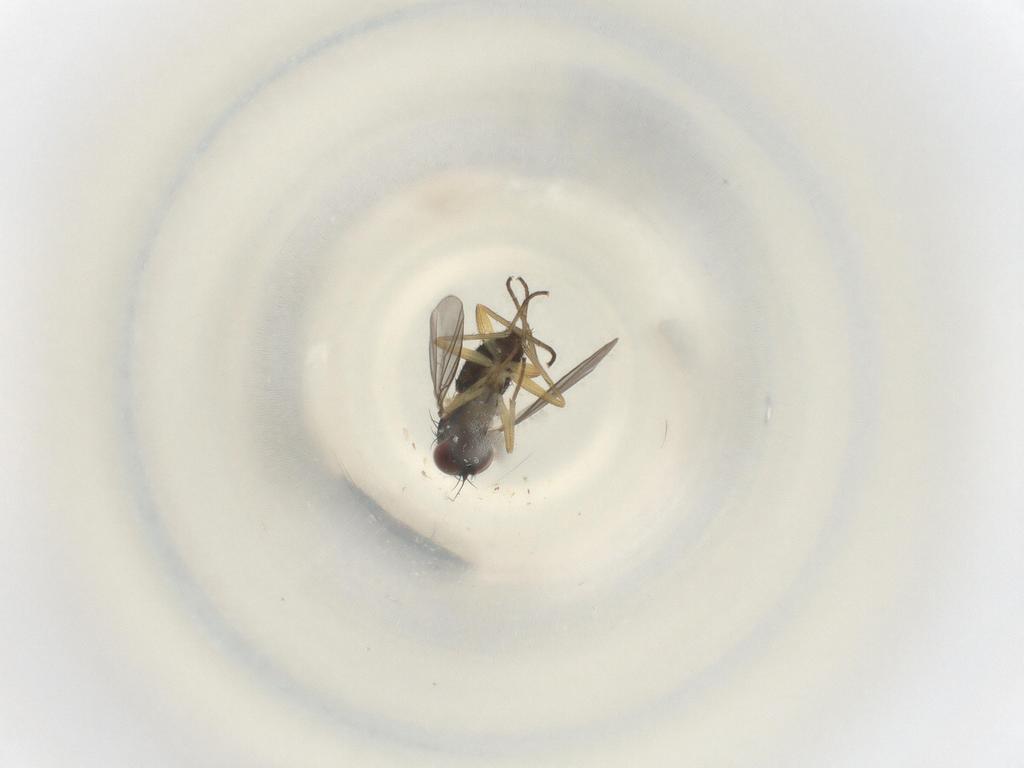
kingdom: Animalia
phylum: Arthropoda
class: Insecta
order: Diptera
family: Dolichopodidae
